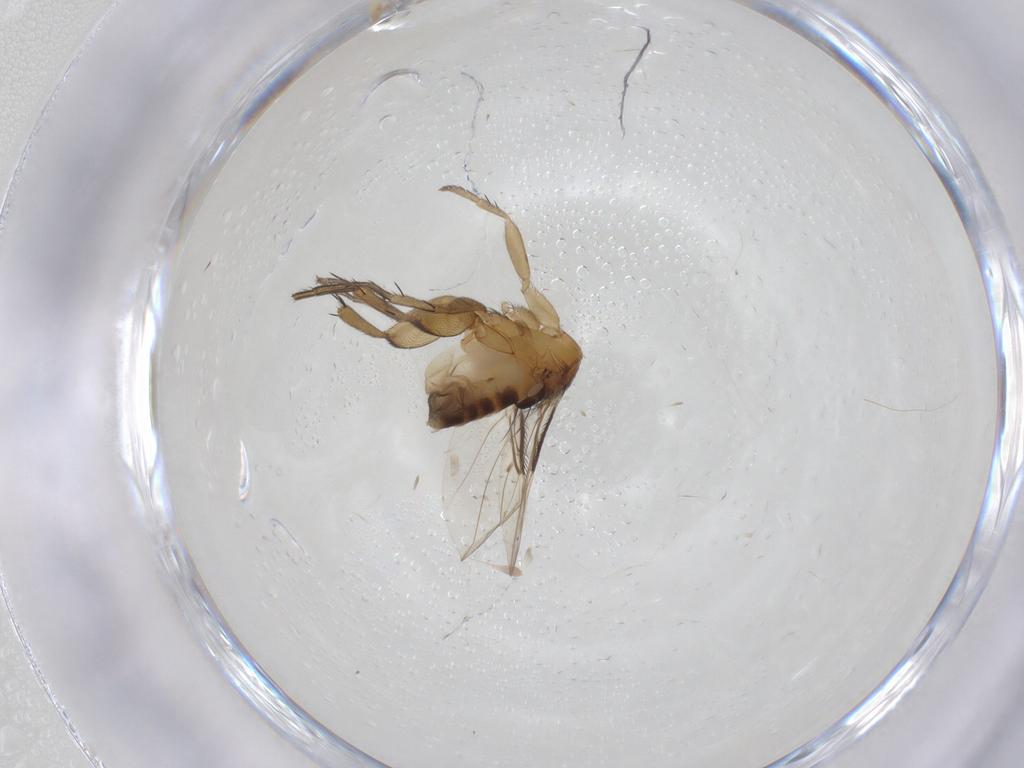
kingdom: Animalia
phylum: Arthropoda
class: Insecta
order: Diptera
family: Phoridae
